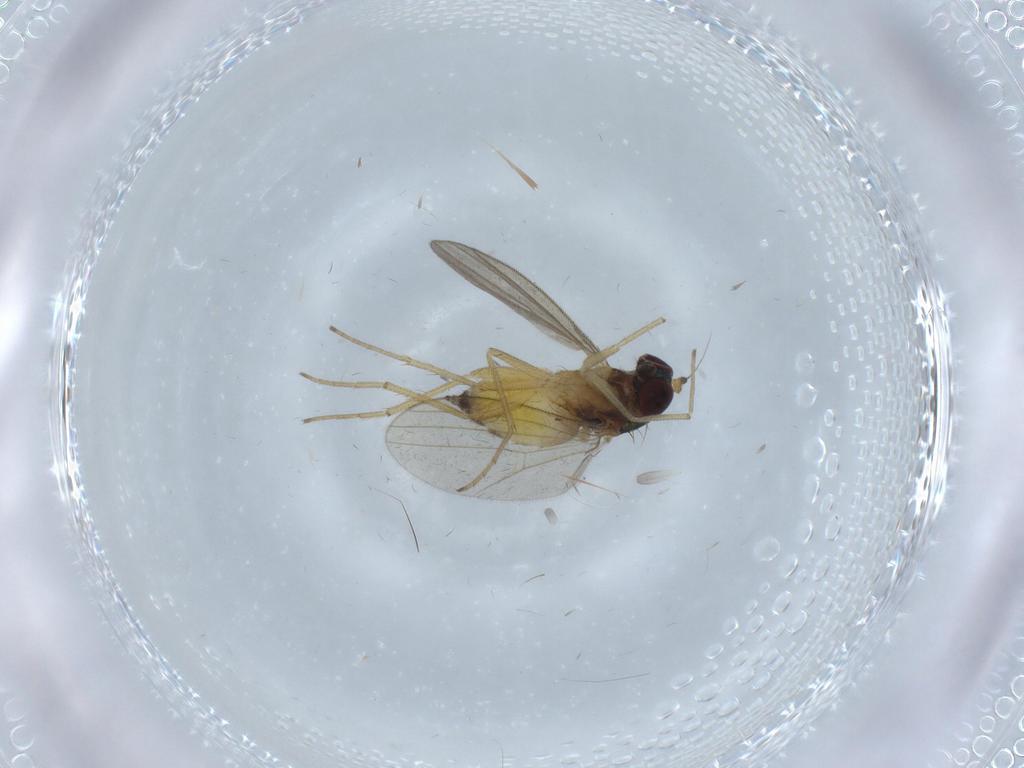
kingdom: Animalia
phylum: Arthropoda
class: Insecta
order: Diptera
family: Dolichopodidae
